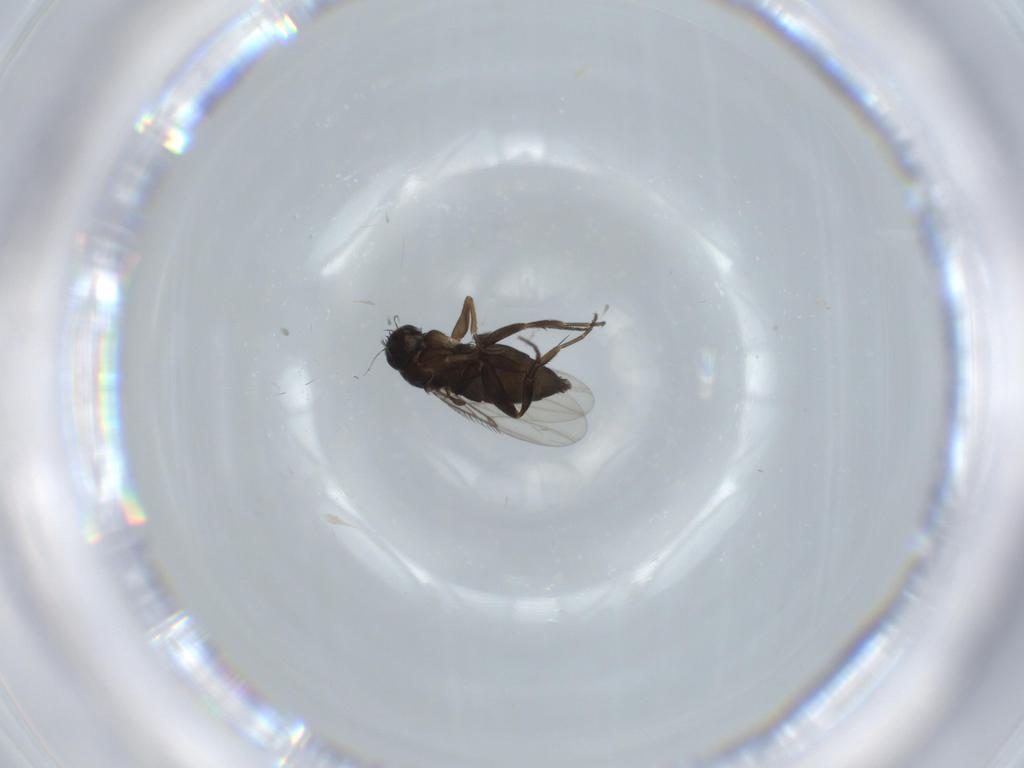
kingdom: Animalia
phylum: Arthropoda
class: Insecta
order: Diptera
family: Phoridae
